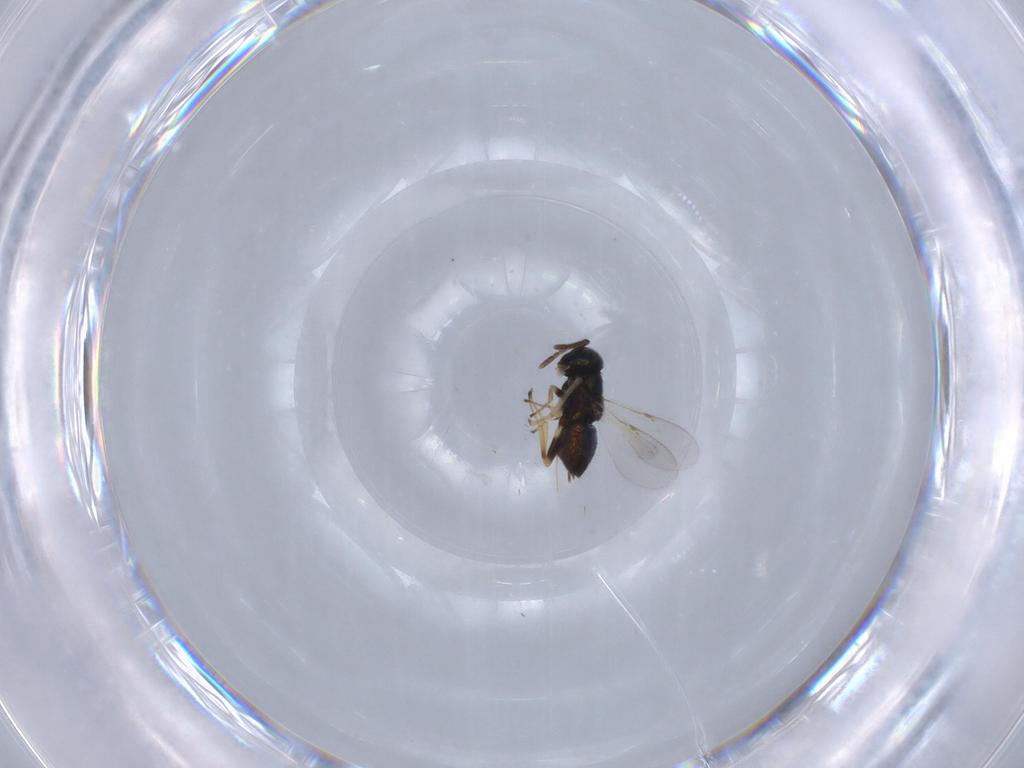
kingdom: Animalia
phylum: Arthropoda
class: Insecta
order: Hymenoptera
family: Encyrtidae
